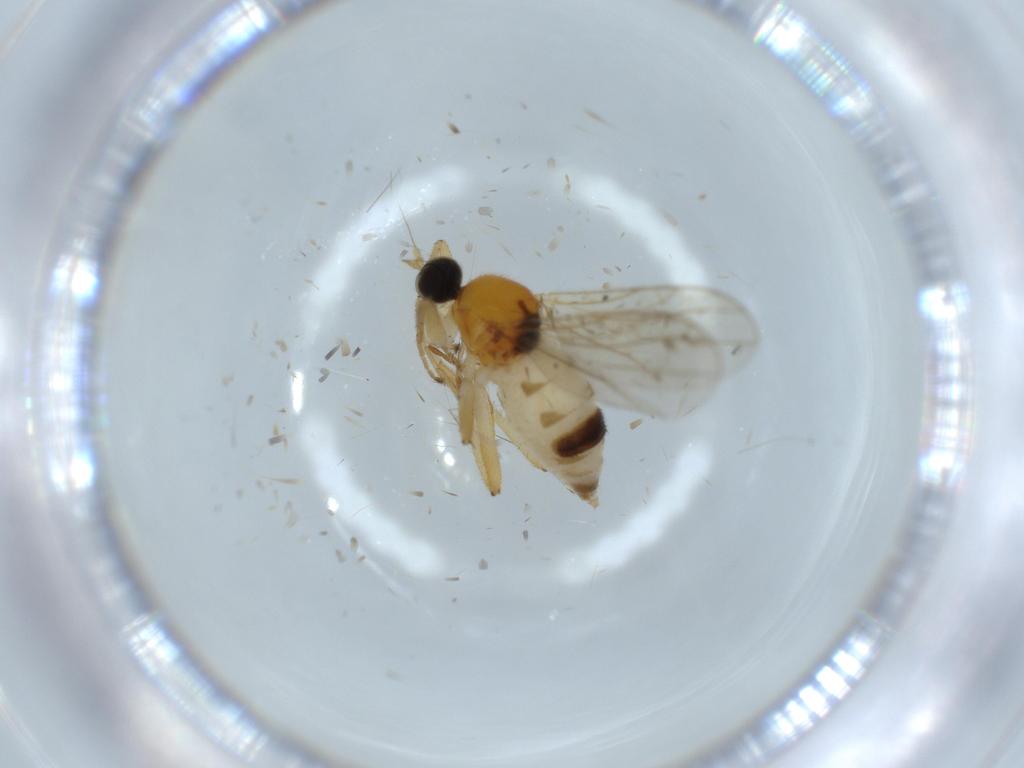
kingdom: Animalia
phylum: Arthropoda
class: Insecta
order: Diptera
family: Hybotidae
